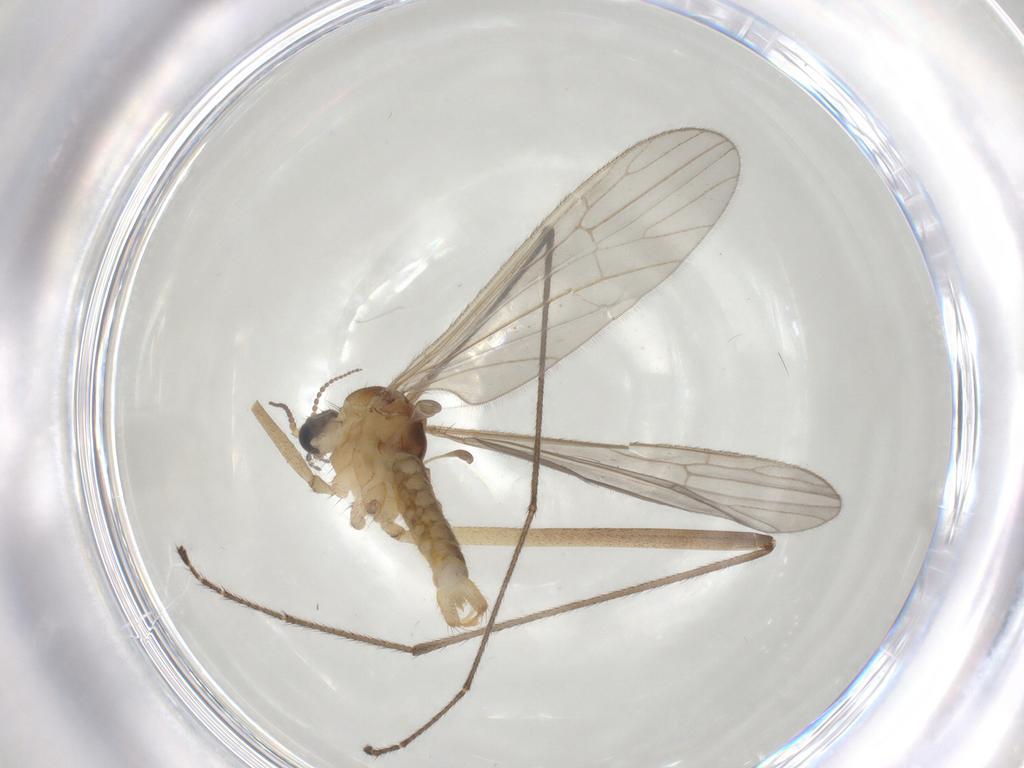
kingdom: Animalia
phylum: Arthropoda
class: Insecta
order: Diptera
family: Limoniidae
